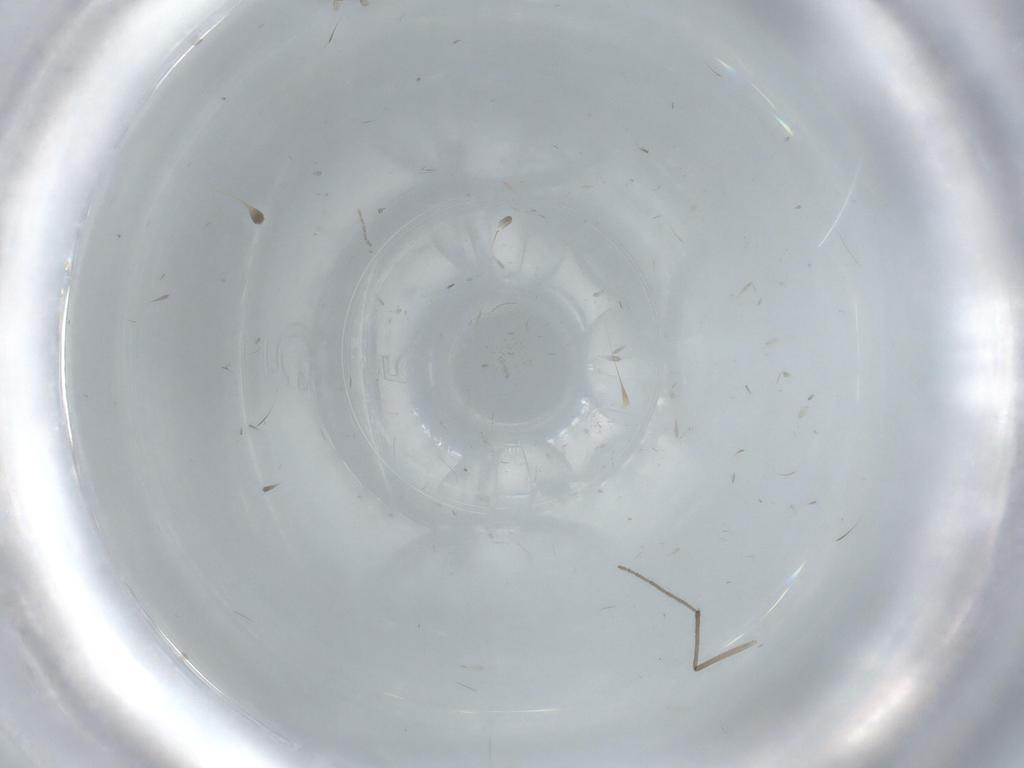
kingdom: Animalia
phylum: Arthropoda
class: Insecta
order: Diptera
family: Cecidomyiidae
